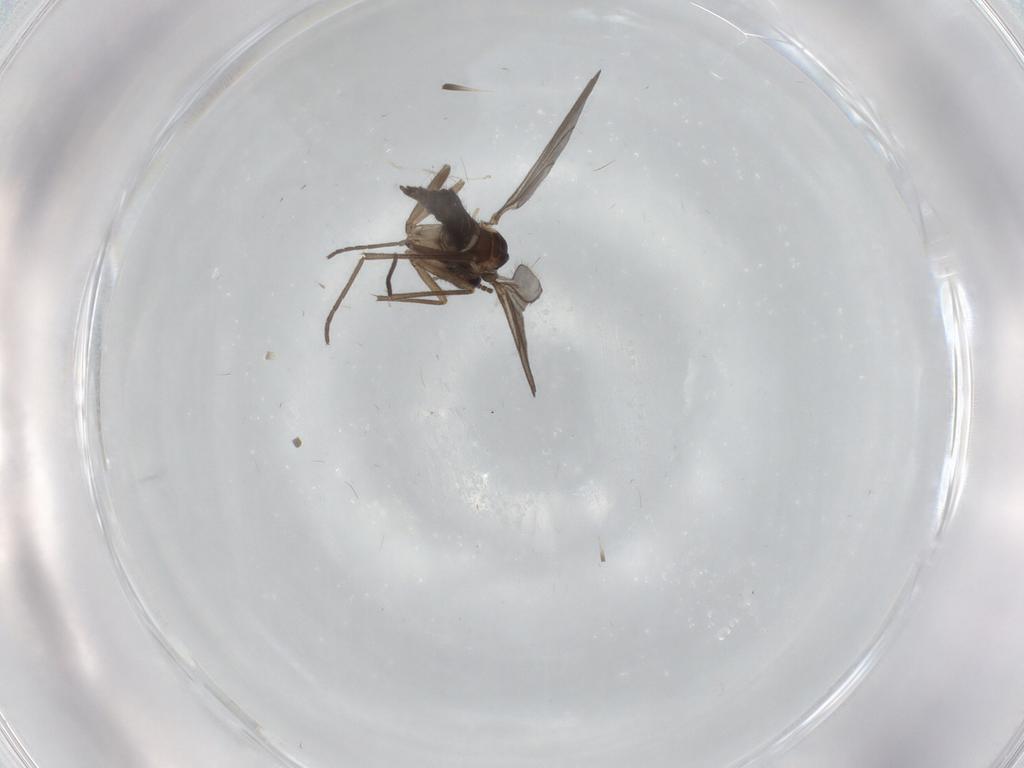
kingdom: Animalia
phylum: Arthropoda
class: Insecta
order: Diptera
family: Sciaridae
